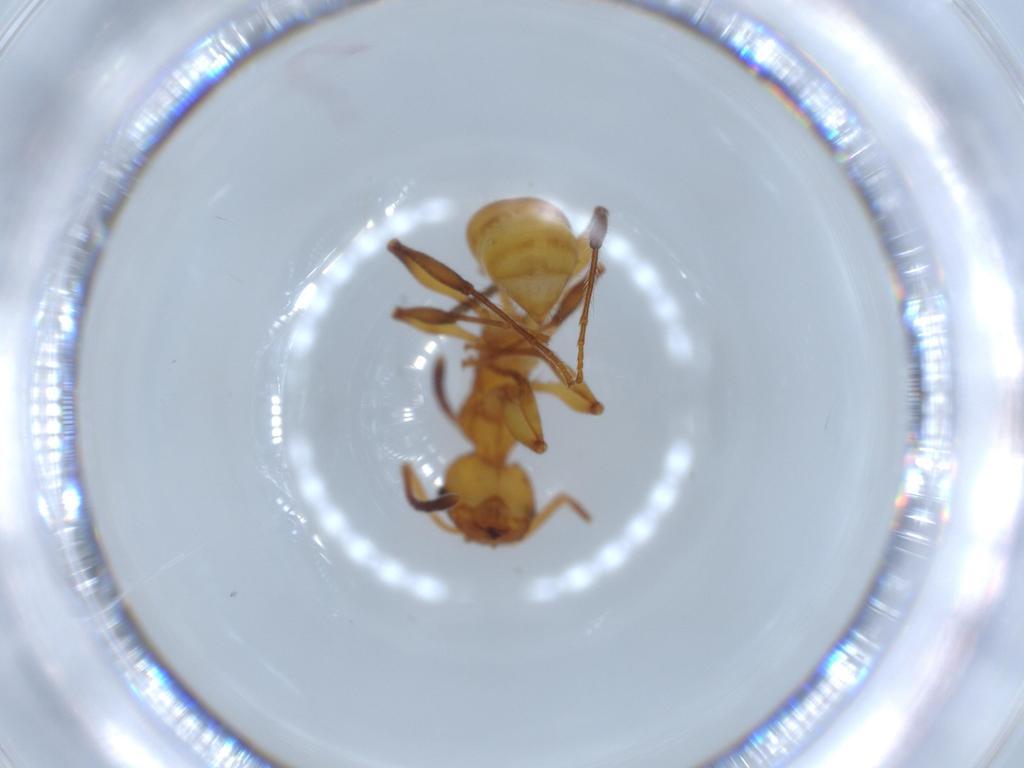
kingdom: Animalia
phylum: Arthropoda
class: Insecta
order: Hymenoptera
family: Formicidae
